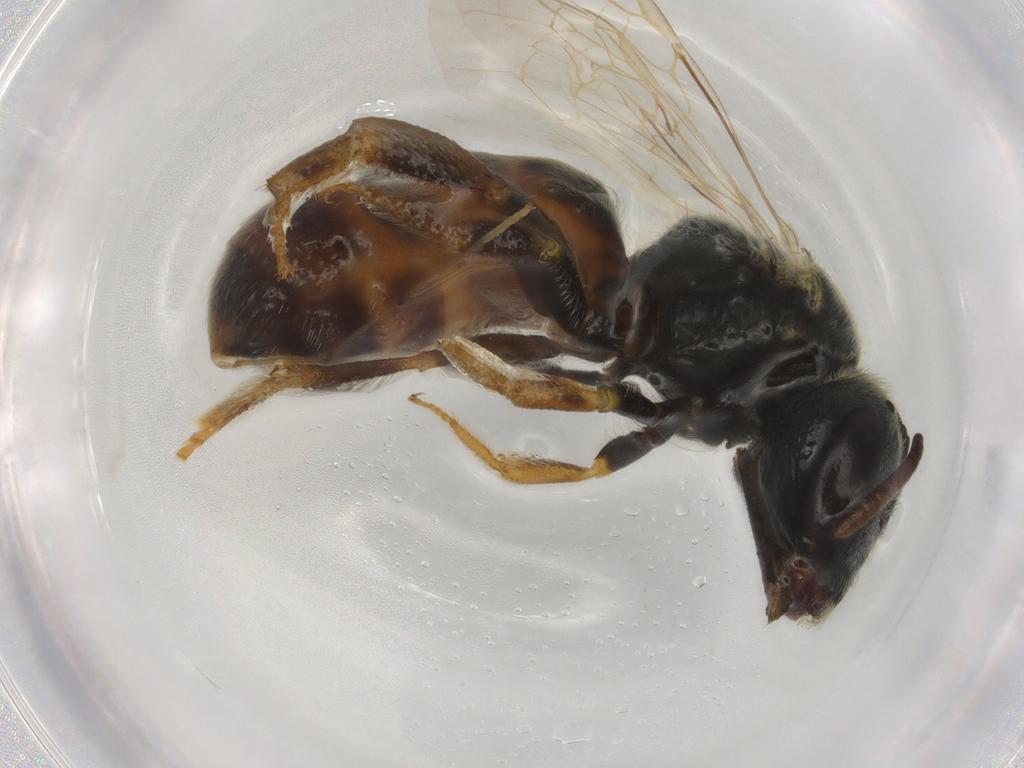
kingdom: Animalia
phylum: Arthropoda
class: Insecta
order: Hymenoptera
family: Halictidae
